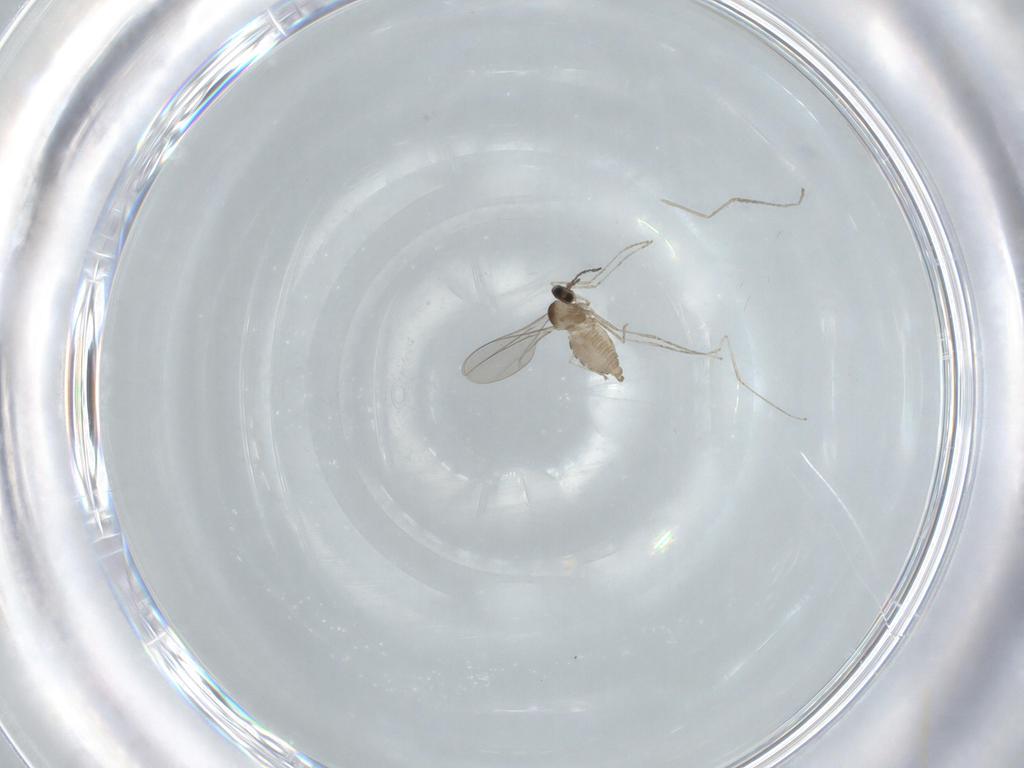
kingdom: Animalia
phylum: Arthropoda
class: Insecta
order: Diptera
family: Cecidomyiidae
